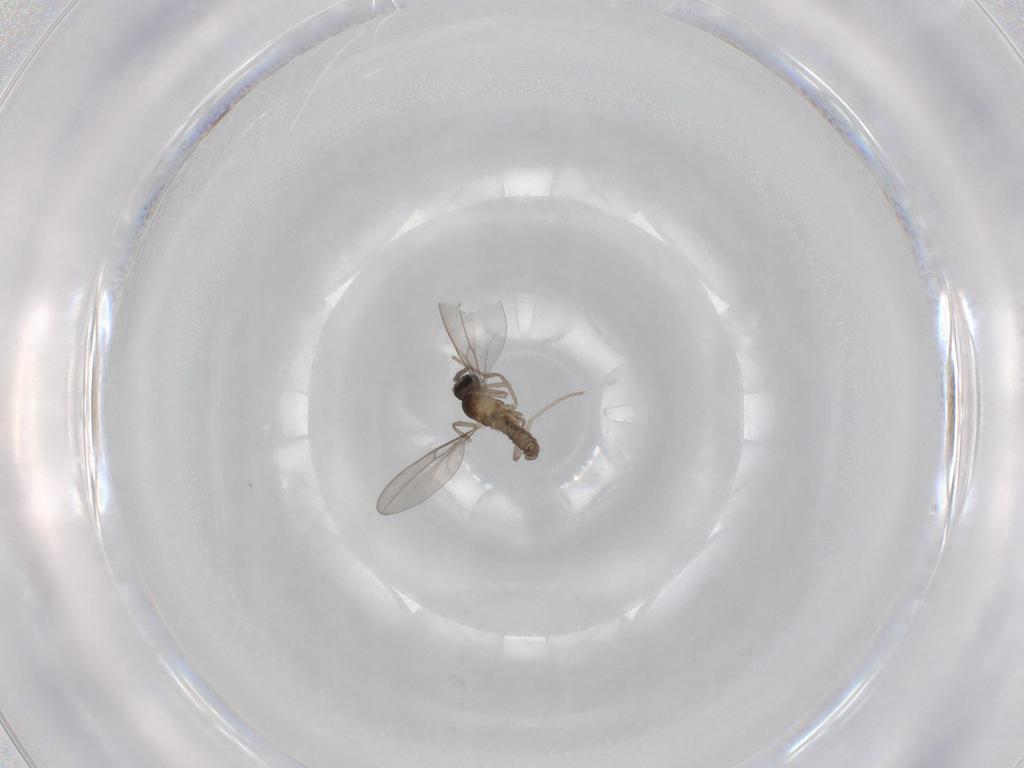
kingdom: Animalia
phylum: Arthropoda
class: Insecta
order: Diptera
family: Cecidomyiidae
